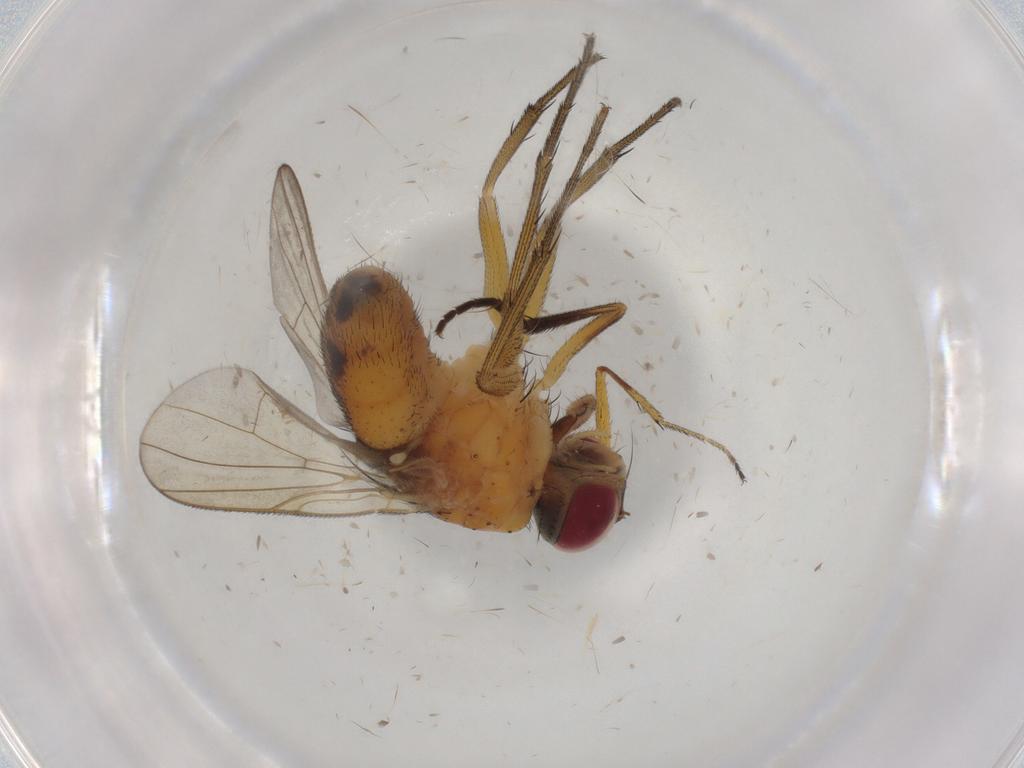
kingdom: Animalia
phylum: Arthropoda
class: Insecta
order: Diptera
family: Muscidae
